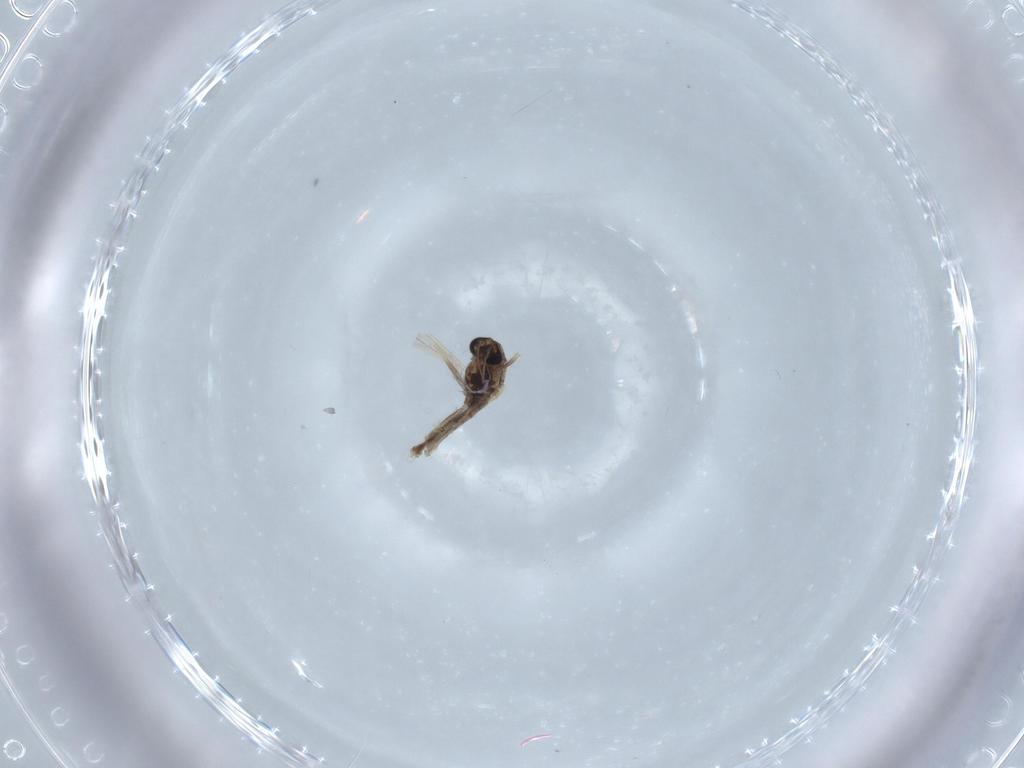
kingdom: Animalia
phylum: Arthropoda
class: Insecta
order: Diptera
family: Chironomidae
